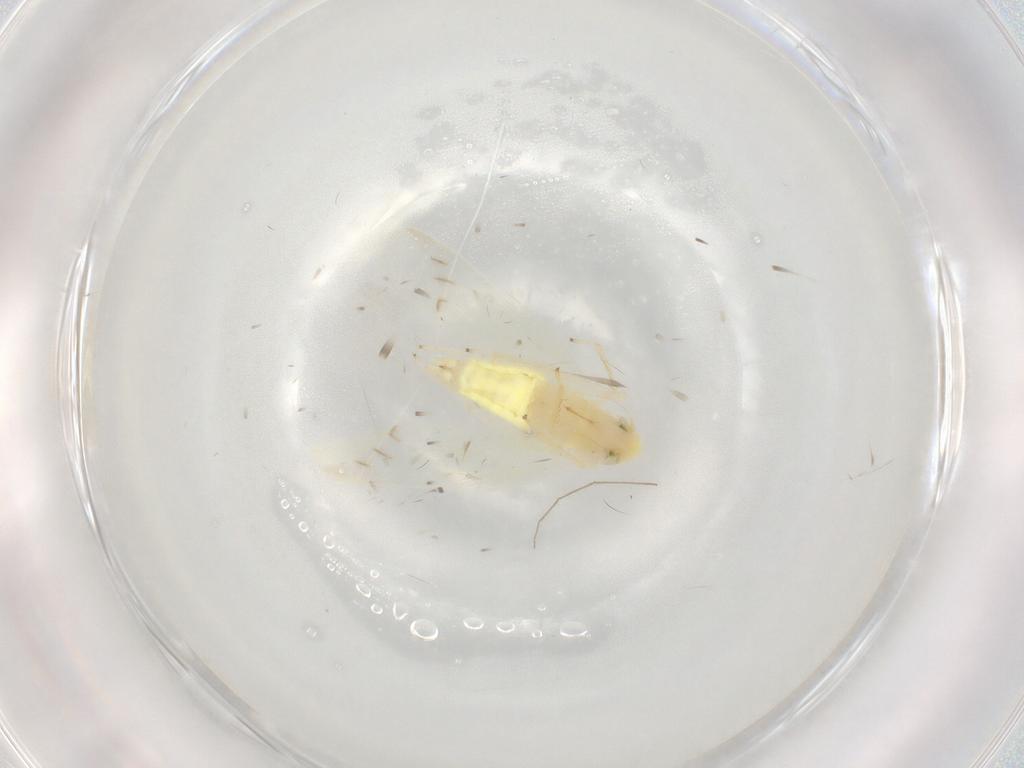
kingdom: Animalia
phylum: Arthropoda
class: Insecta
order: Hemiptera
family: Cicadellidae
